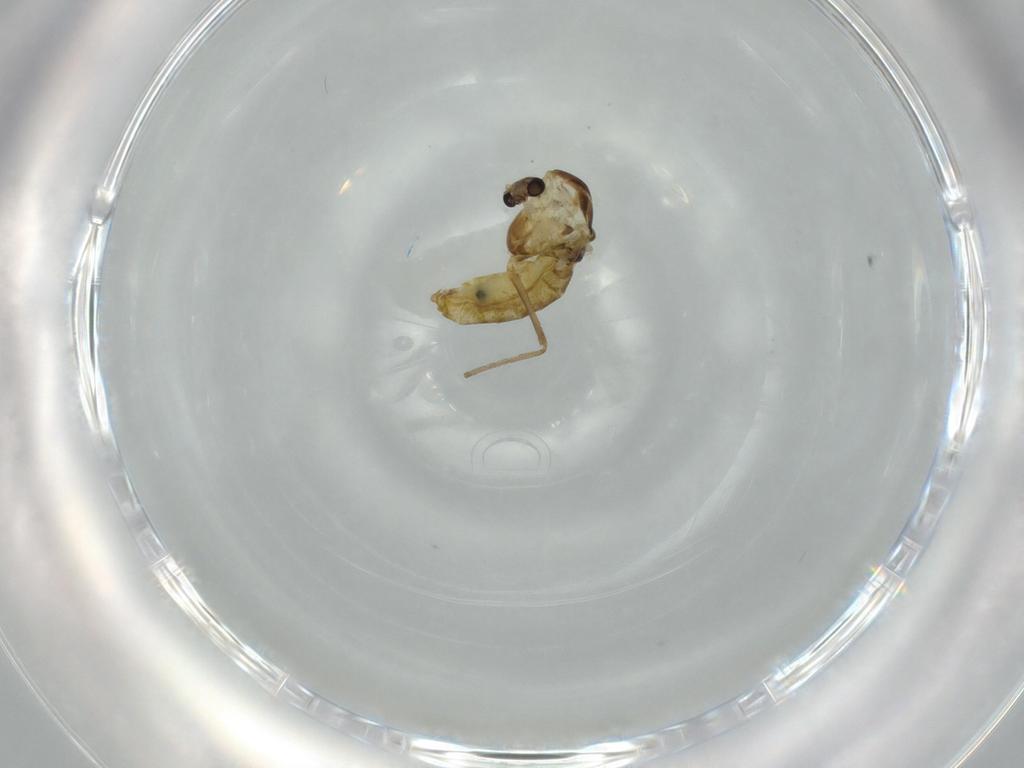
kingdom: Animalia
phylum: Arthropoda
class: Insecta
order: Diptera
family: Chironomidae
